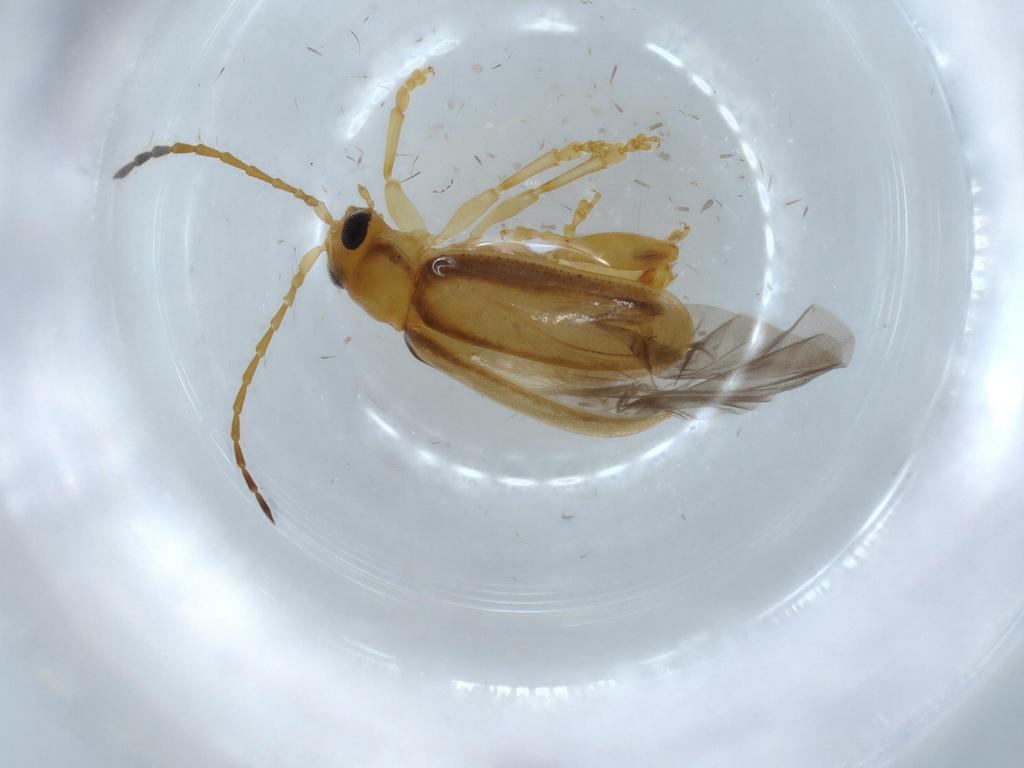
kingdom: Animalia
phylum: Arthropoda
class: Insecta
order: Coleoptera
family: Chrysomelidae
